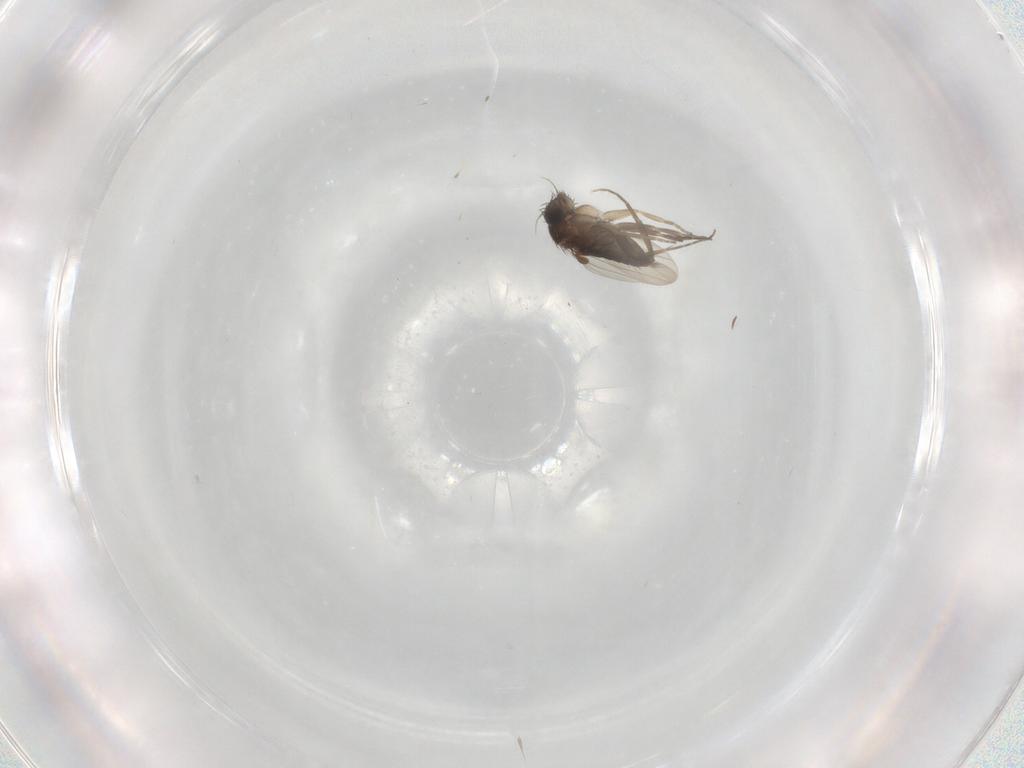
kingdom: Animalia
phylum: Arthropoda
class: Insecta
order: Diptera
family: Phoridae
